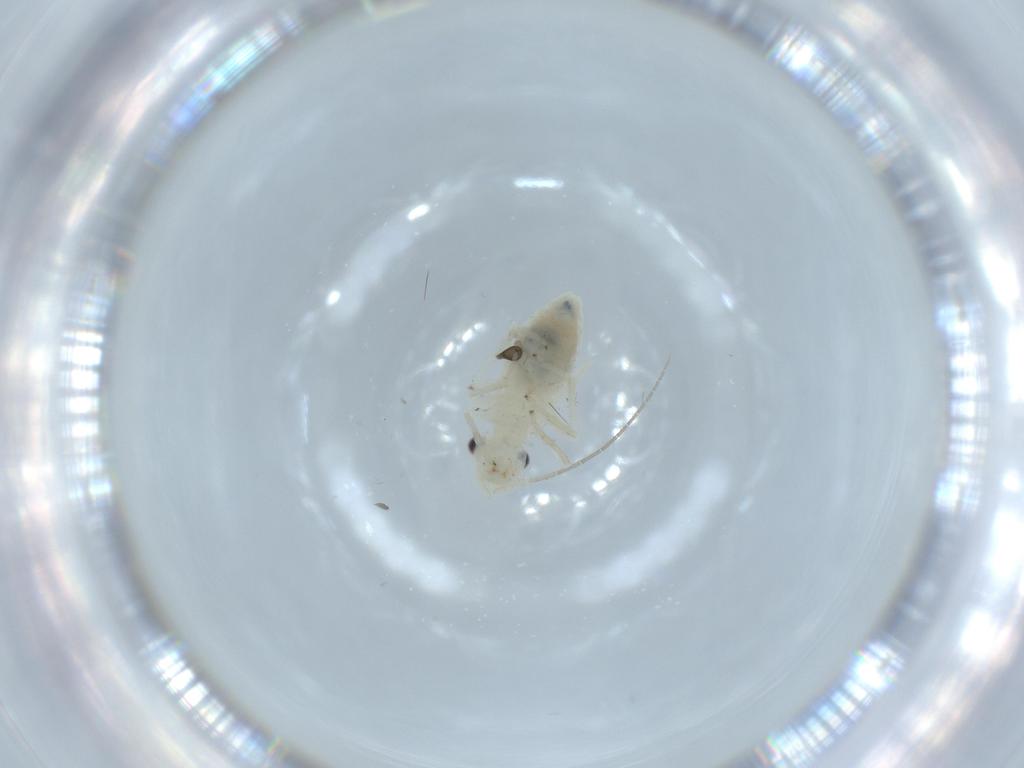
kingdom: Animalia
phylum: Arthropoda
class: Insecta
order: Psocodea
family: Caeciliusidae
